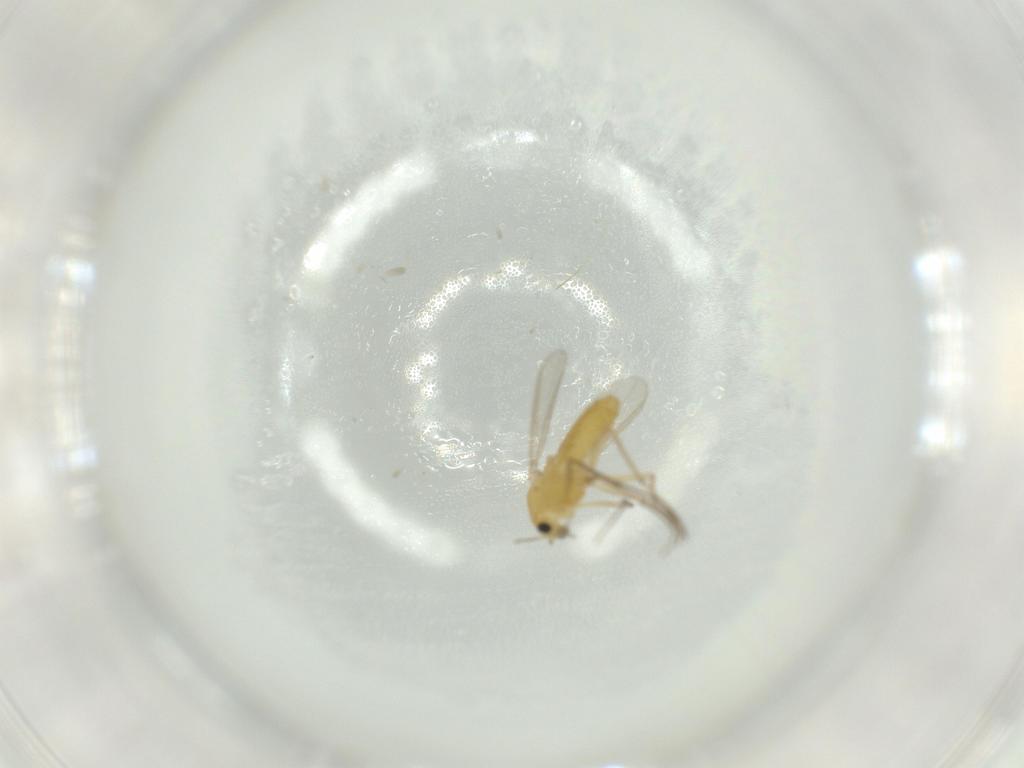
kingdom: Animalia
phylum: Arthropoda
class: Insecta
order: Diptera
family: Chironomidae
